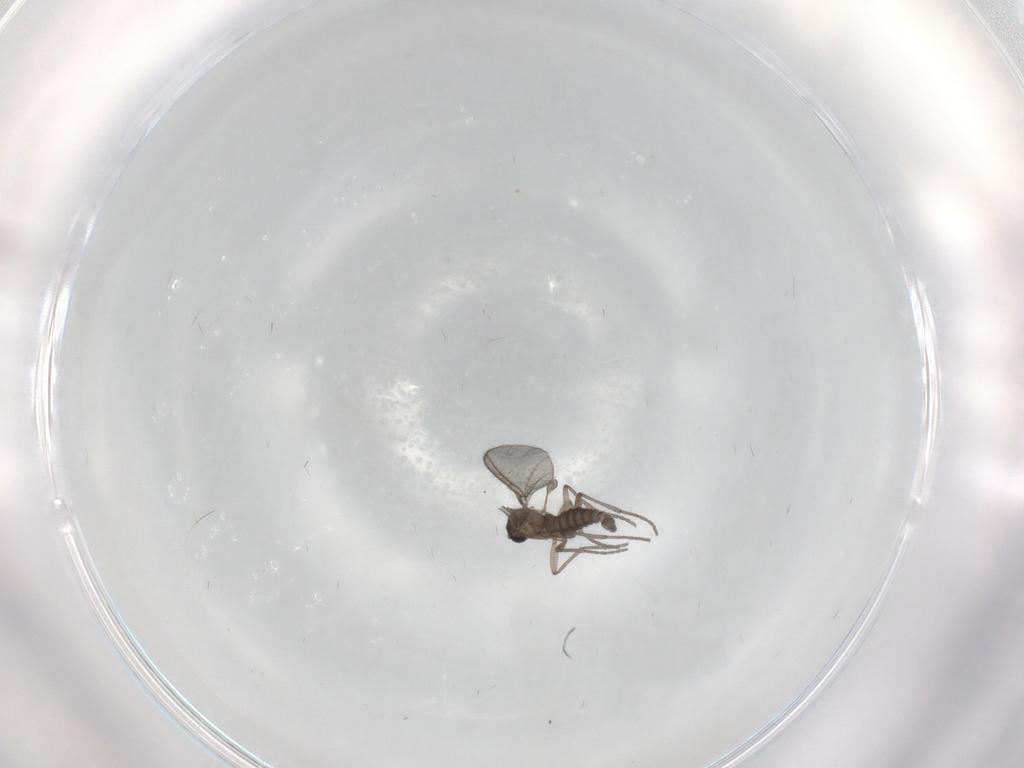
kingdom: Animalia
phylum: Arthropoda
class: Insecta
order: Diptera
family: Sciaridae
